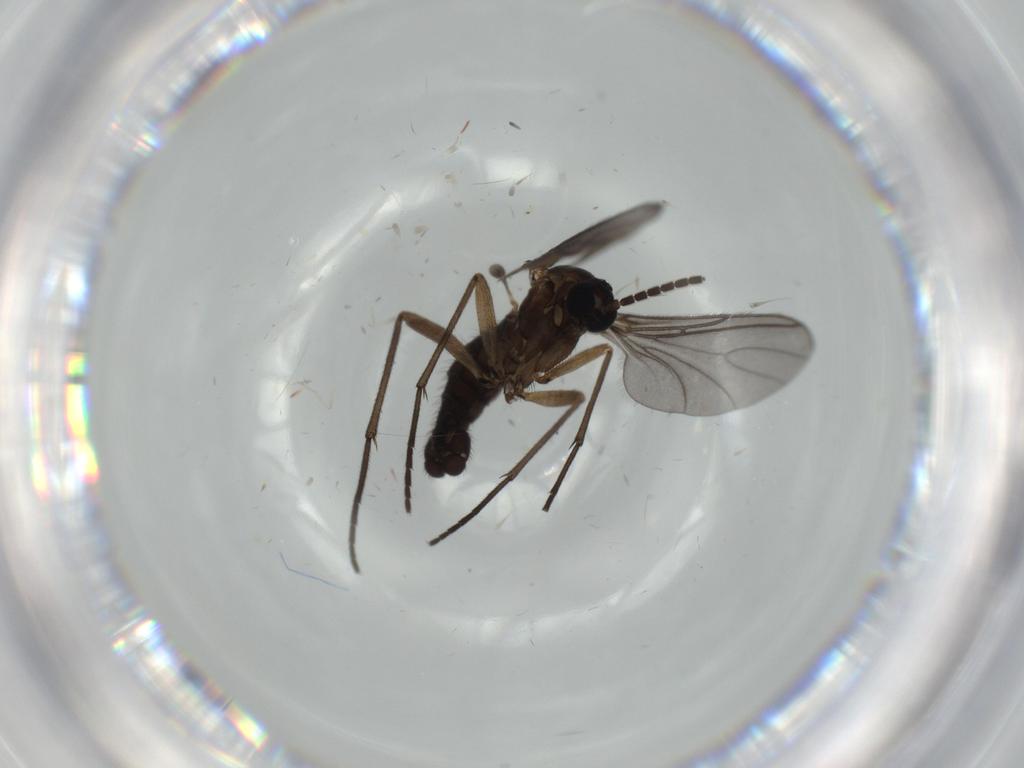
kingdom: Animalia
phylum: Arthropoda
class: Insecta
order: Diptera
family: Sciaridae
